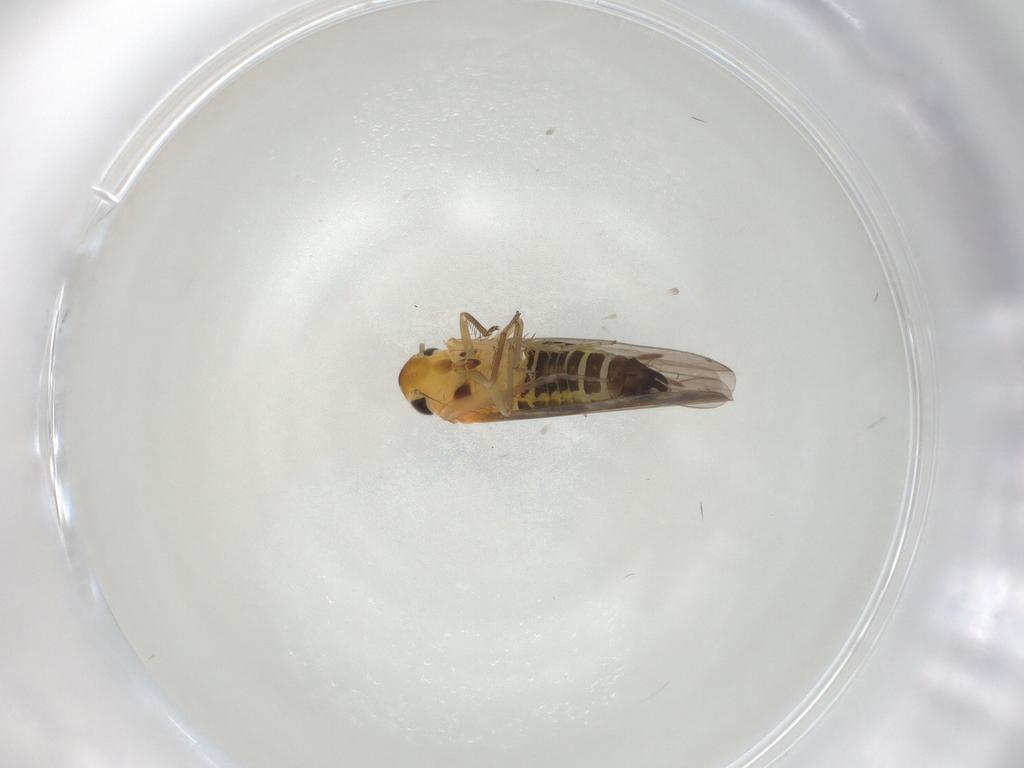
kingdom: Animalia
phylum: Arthropoda
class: Insecta
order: Hemiptera
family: Cicadellidae
